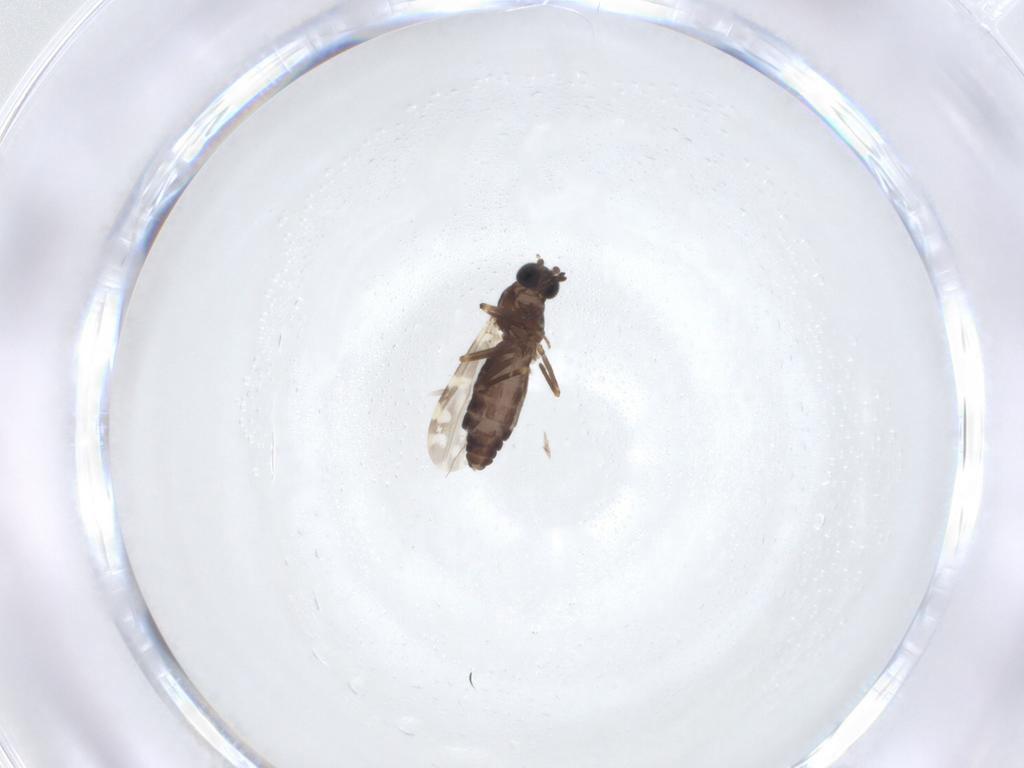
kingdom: Animalia
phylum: Arthropoda
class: Insecta
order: Diptera
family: Ceratopogonidae
